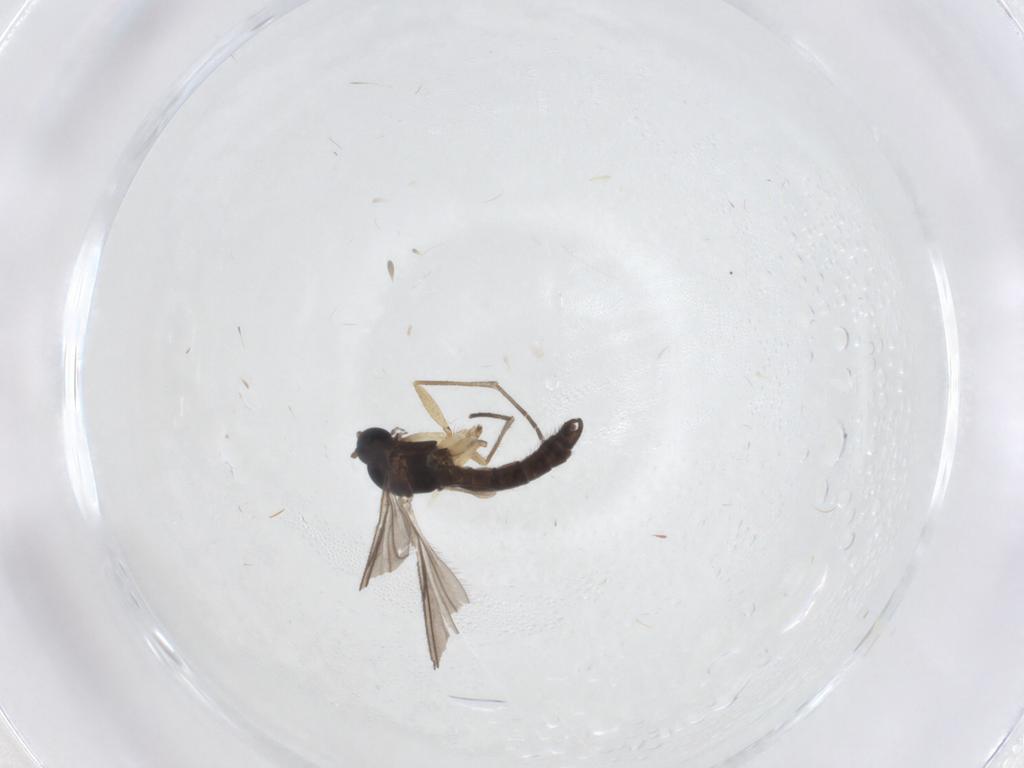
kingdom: Animalia
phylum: Arthropoda
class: Insecta
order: Diptera
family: Stratiomyidae
